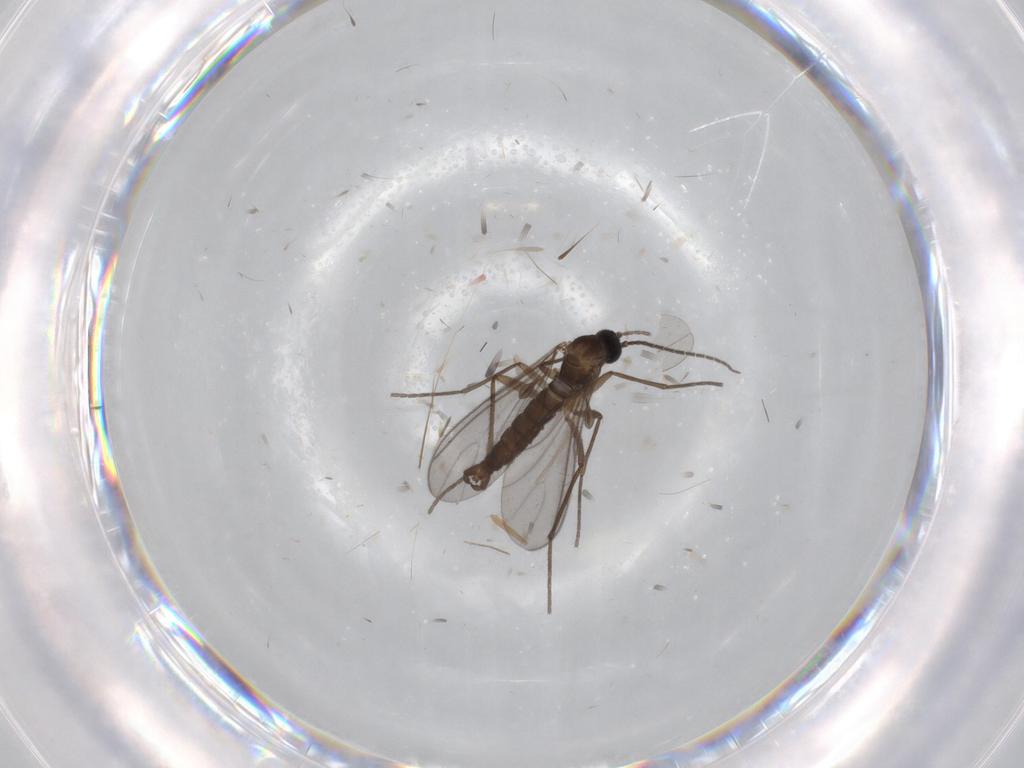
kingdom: Animalia
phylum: Arthropoda
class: Insecta
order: Diptera
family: Sciaridae
